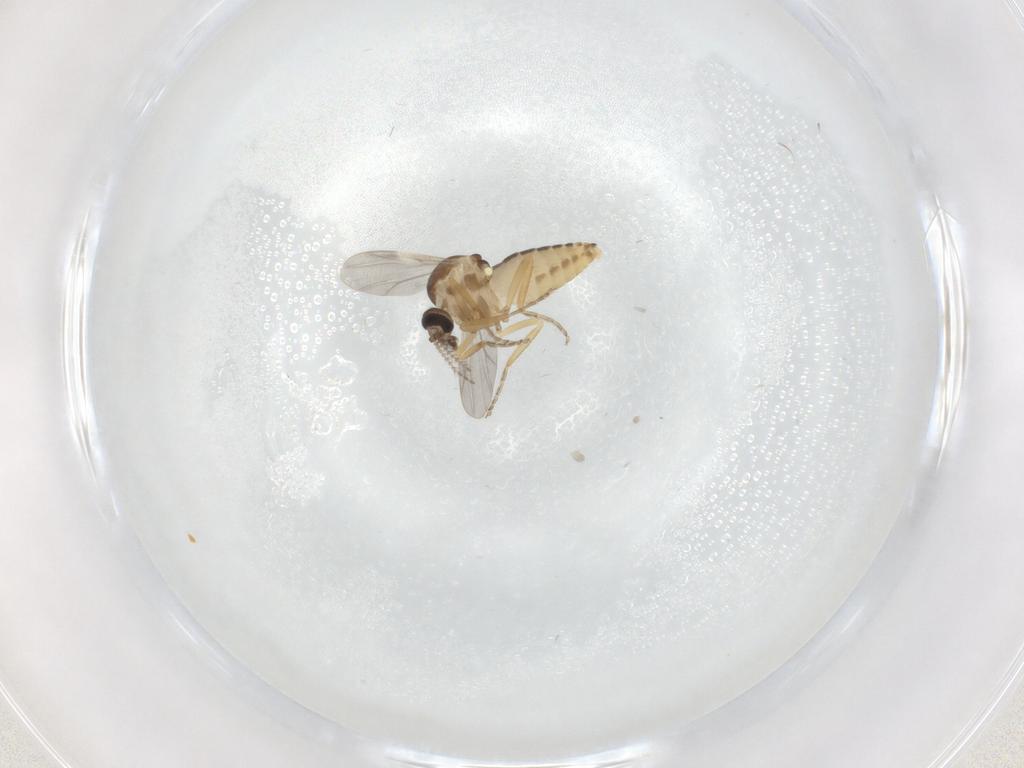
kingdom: Animalia
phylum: Arthropoda
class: Insecta
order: Diptera
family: Ceratopogonidae
